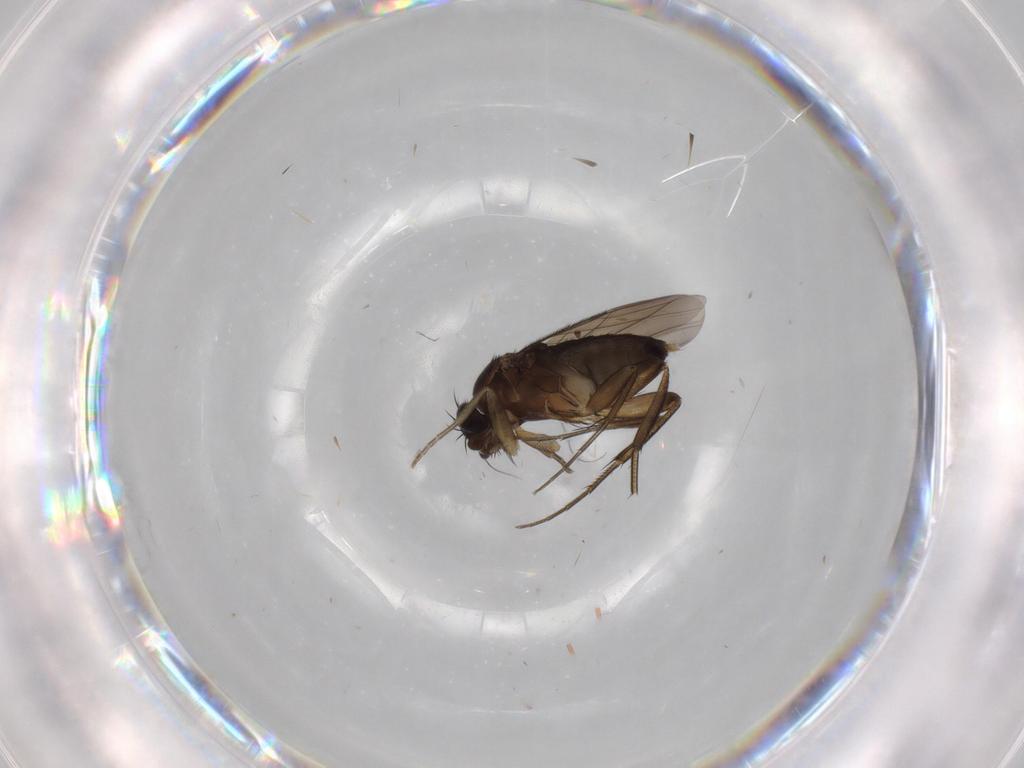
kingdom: Animalia
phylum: Arthropoda
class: Insecta
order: Diptera
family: Phoridae
